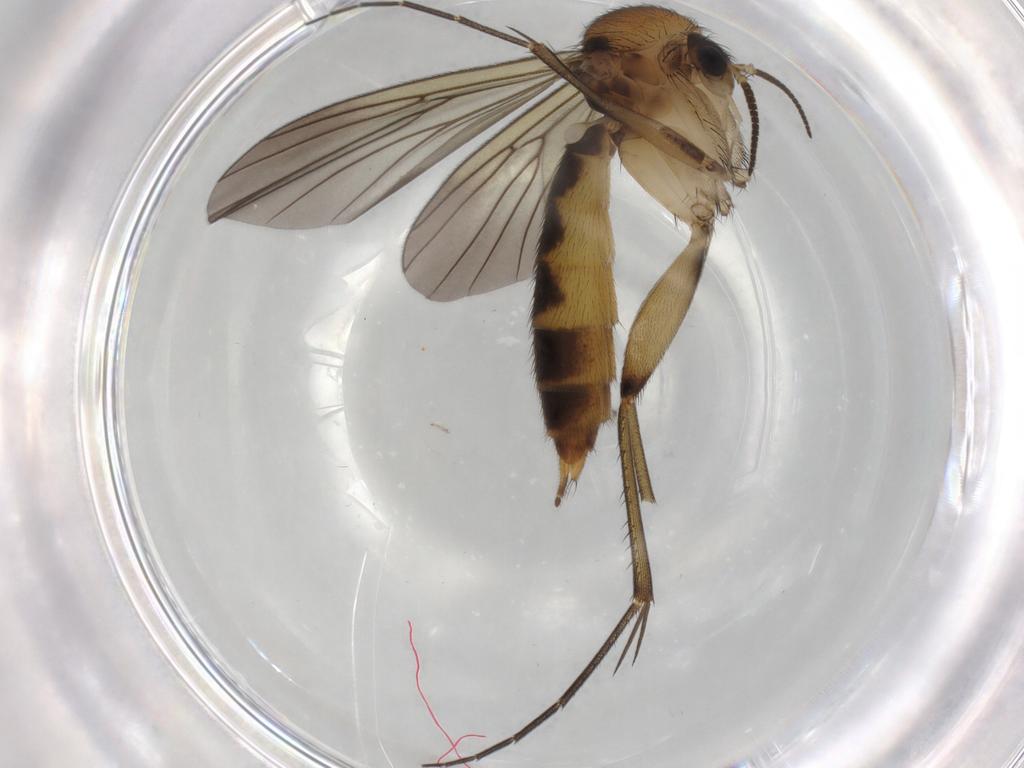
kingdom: Animalia
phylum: Arthropoda
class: Insecta
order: Diptera
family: Mycetophilidae
